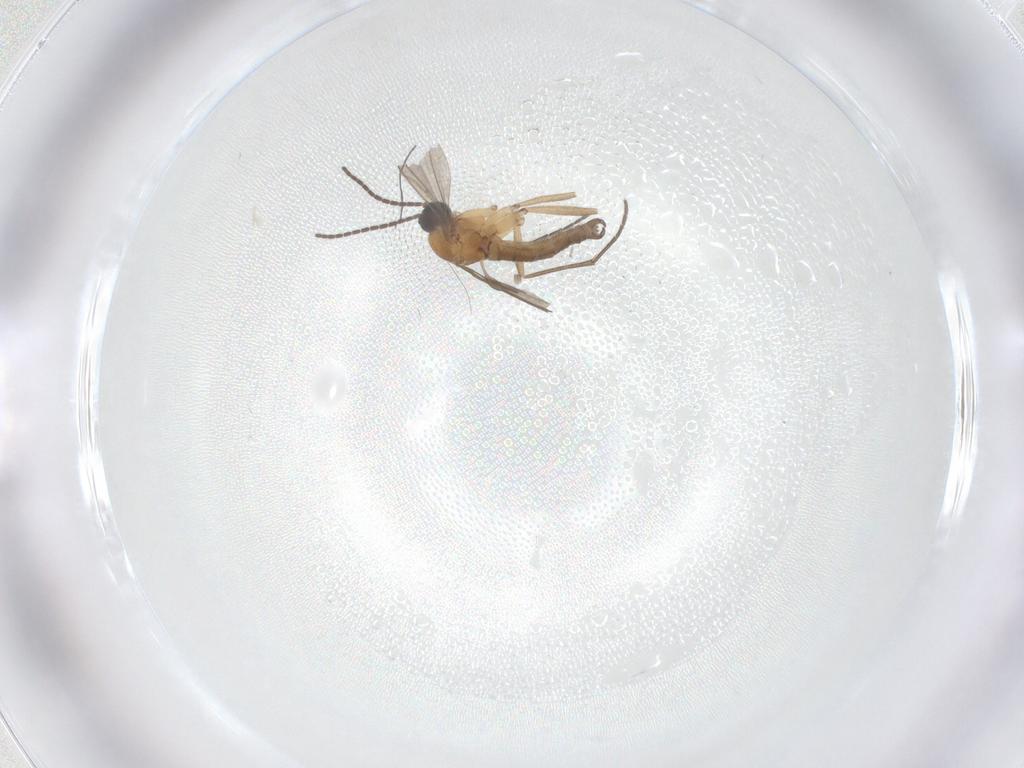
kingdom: Animalia
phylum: Arthropoda
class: Insecta
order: Diptera
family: Sciaridae
